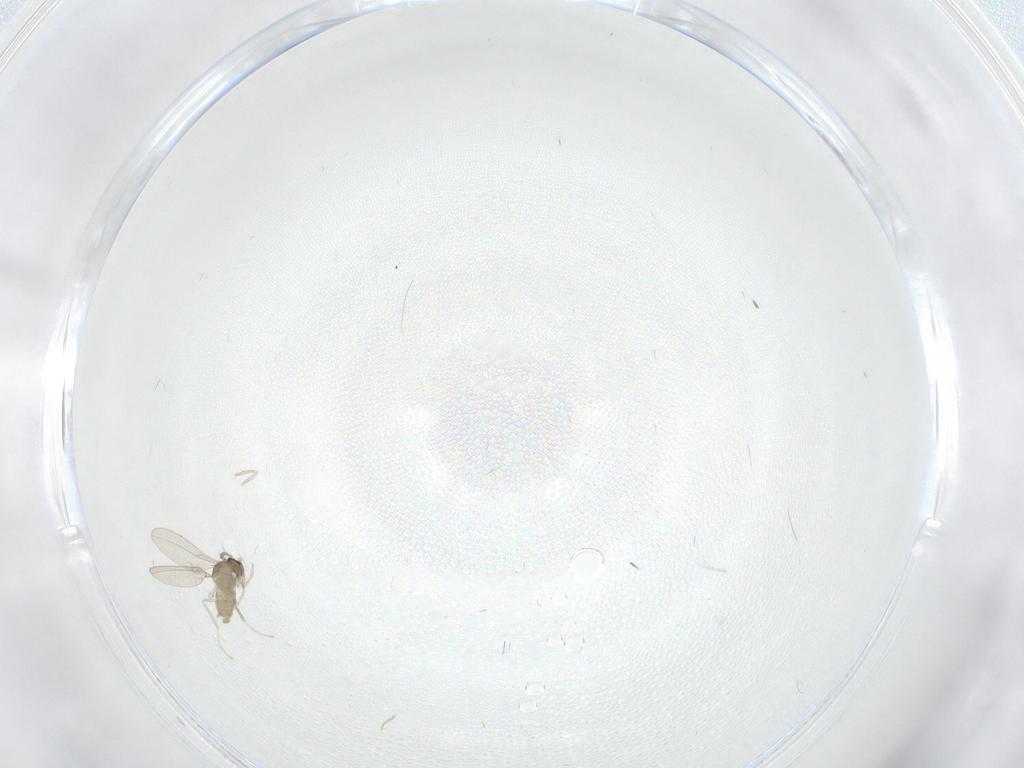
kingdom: Animalia
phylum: Arthropoda
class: Insecta
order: Diptera
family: Cecidomyiidae
